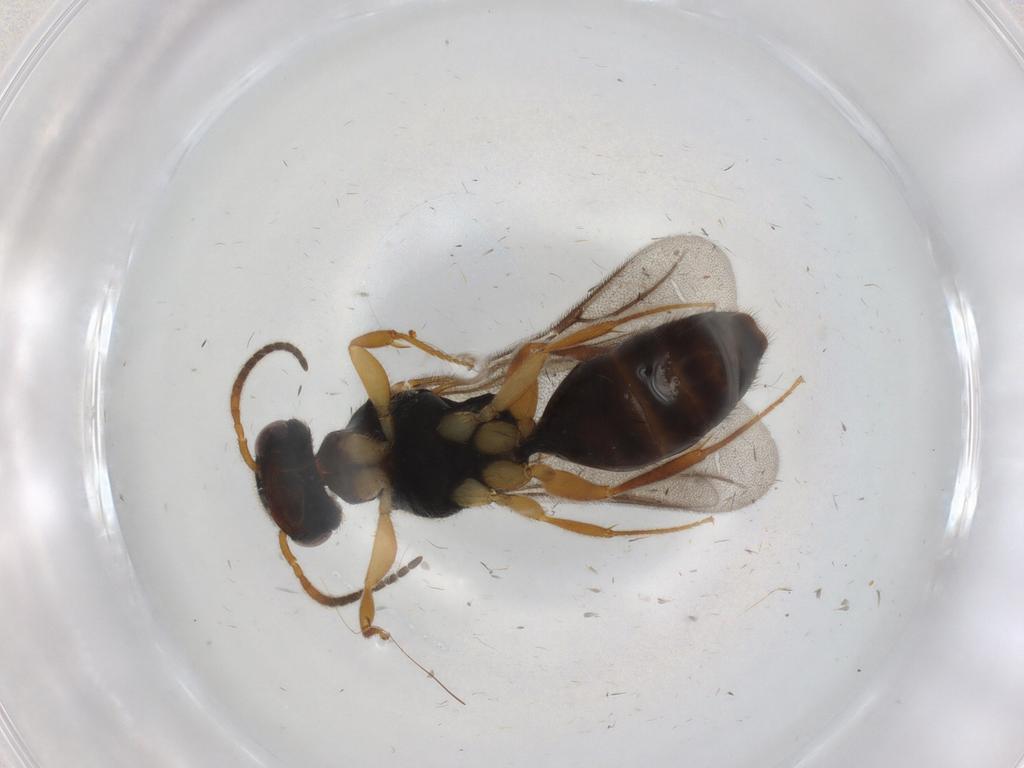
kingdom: Animalia
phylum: Arthropoda
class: Insecta
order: Hymenoptera
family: Bethylidae
